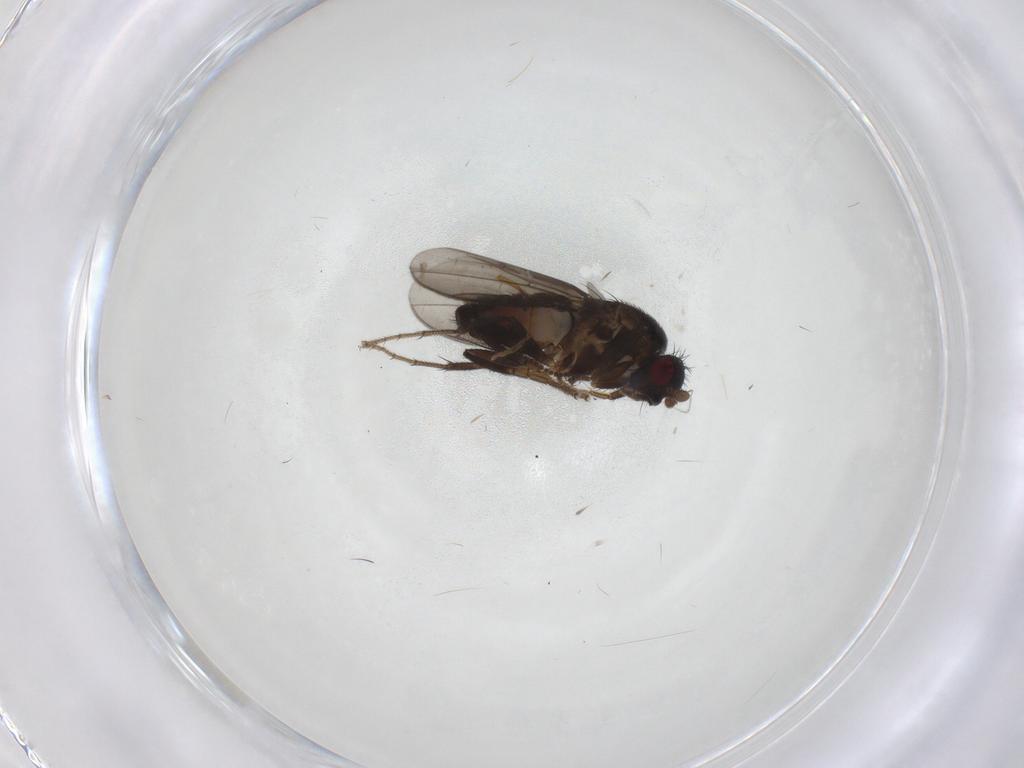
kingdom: Animalia
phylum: Arthropoda
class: Insecta
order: Diptera
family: Sphaeroceridae
